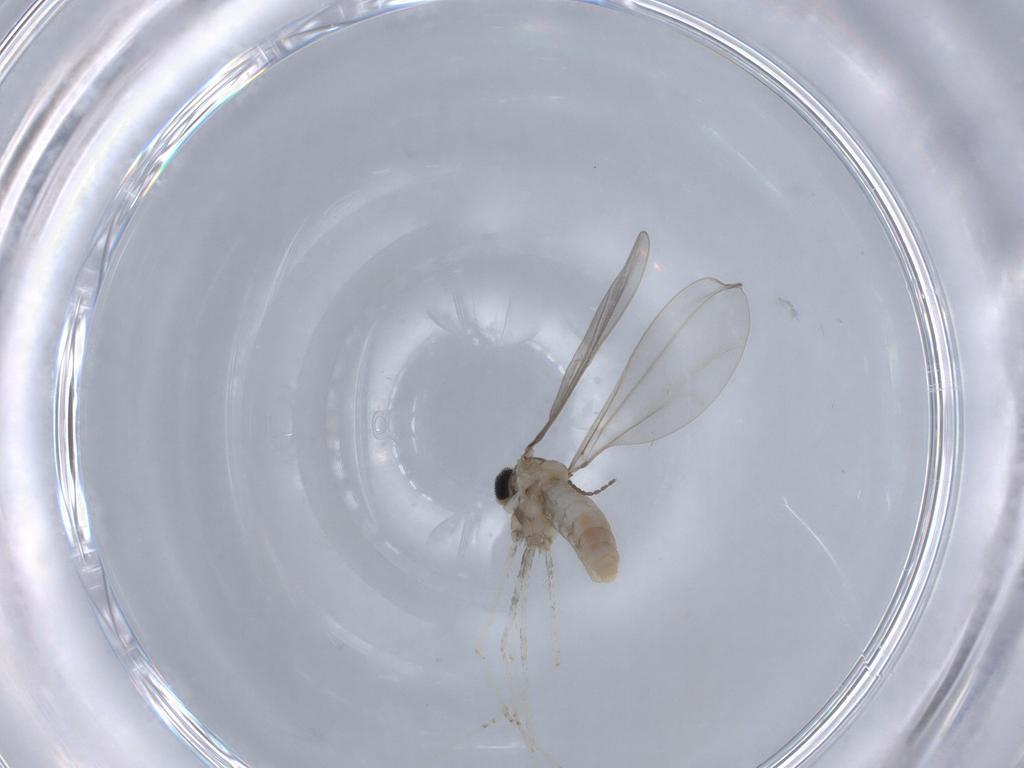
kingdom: Animalia
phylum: Arthropoda
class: Insecta
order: Diptera
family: Cecidomyiidae
